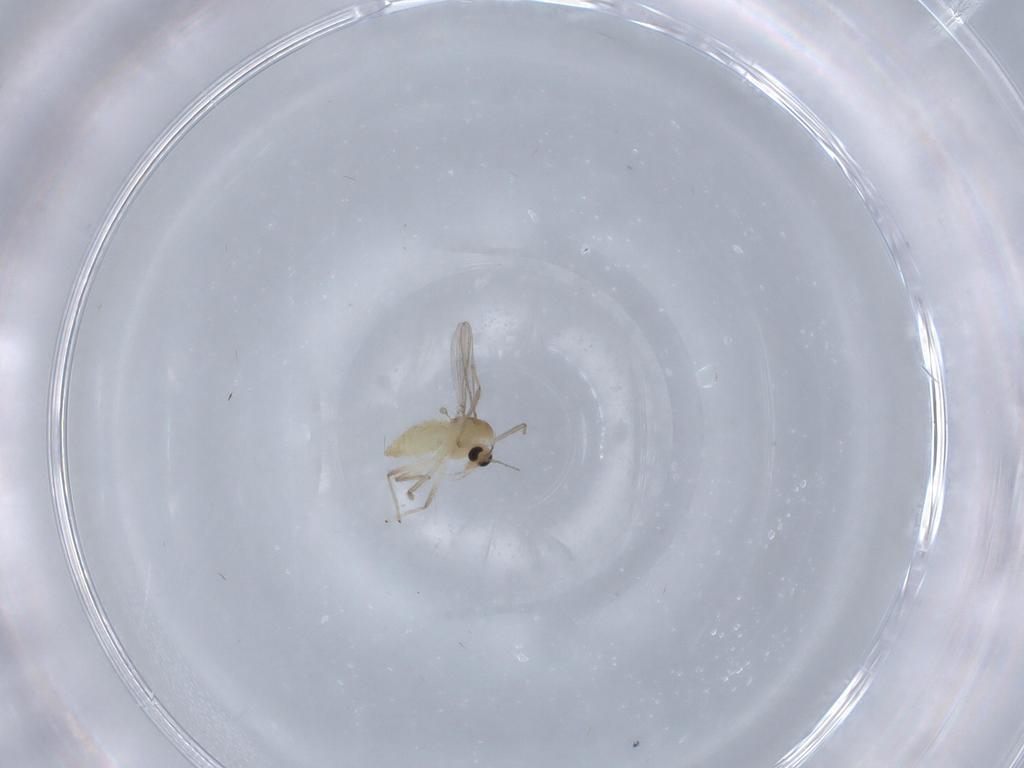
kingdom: Animalia
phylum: Arthropoda
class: Insecta
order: Diptera
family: Chironomidae
